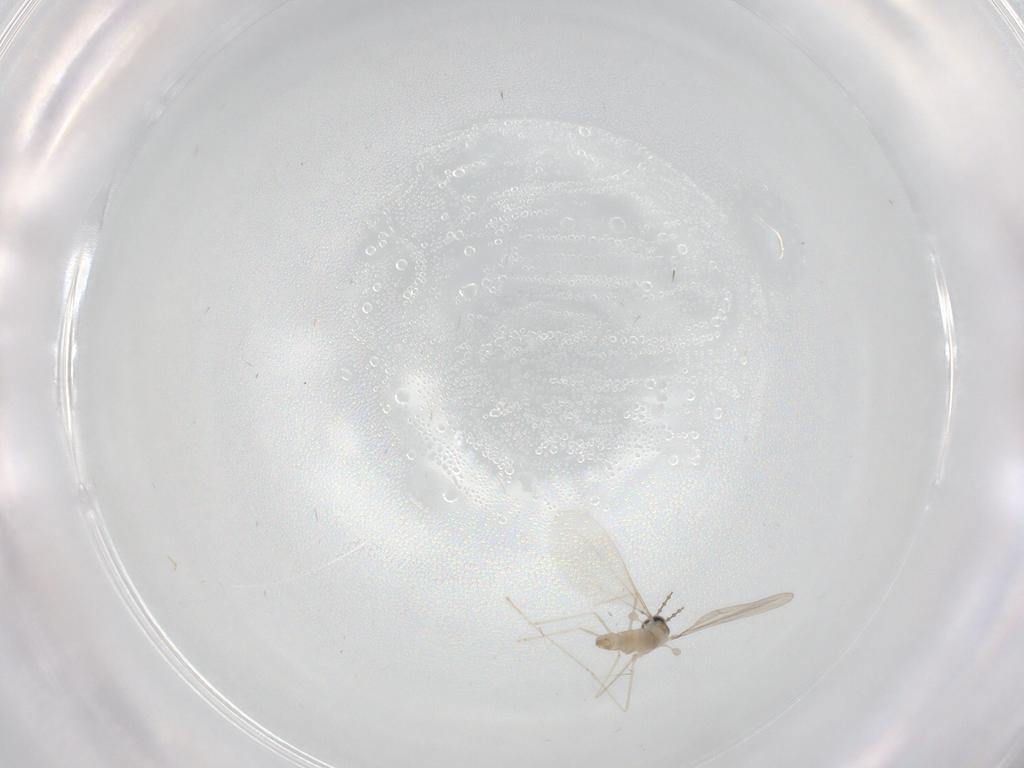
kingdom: Animalia
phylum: Arthropoda
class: Insecta
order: Diptera
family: Cecidomyiidae
